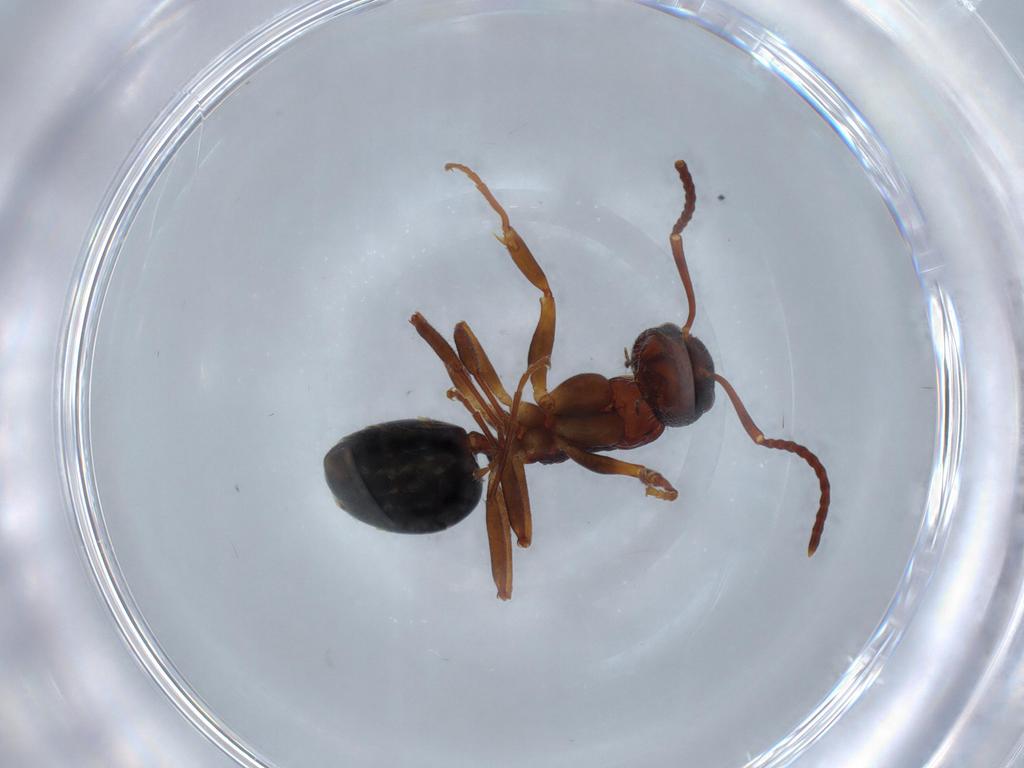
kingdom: Animalia
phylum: Arthropoda
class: Insecta
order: Hymenoptera
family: Formicidae
